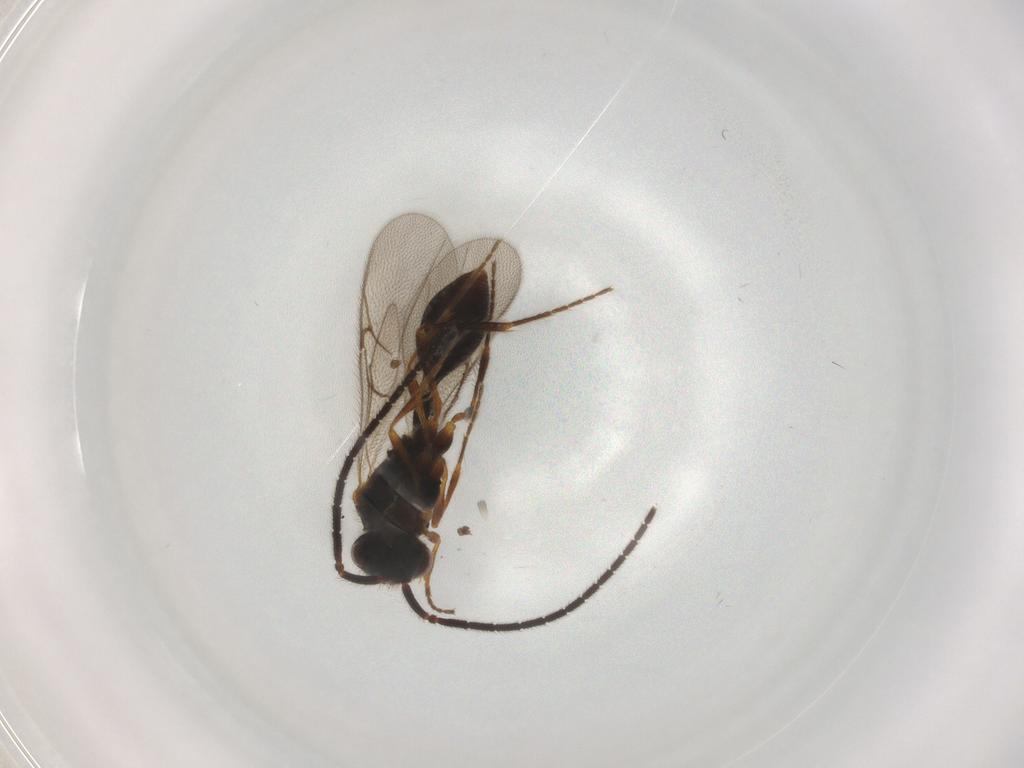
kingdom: Animalia
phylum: Arthropoda
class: Insecta
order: Hymenoptera
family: Diapriidae
